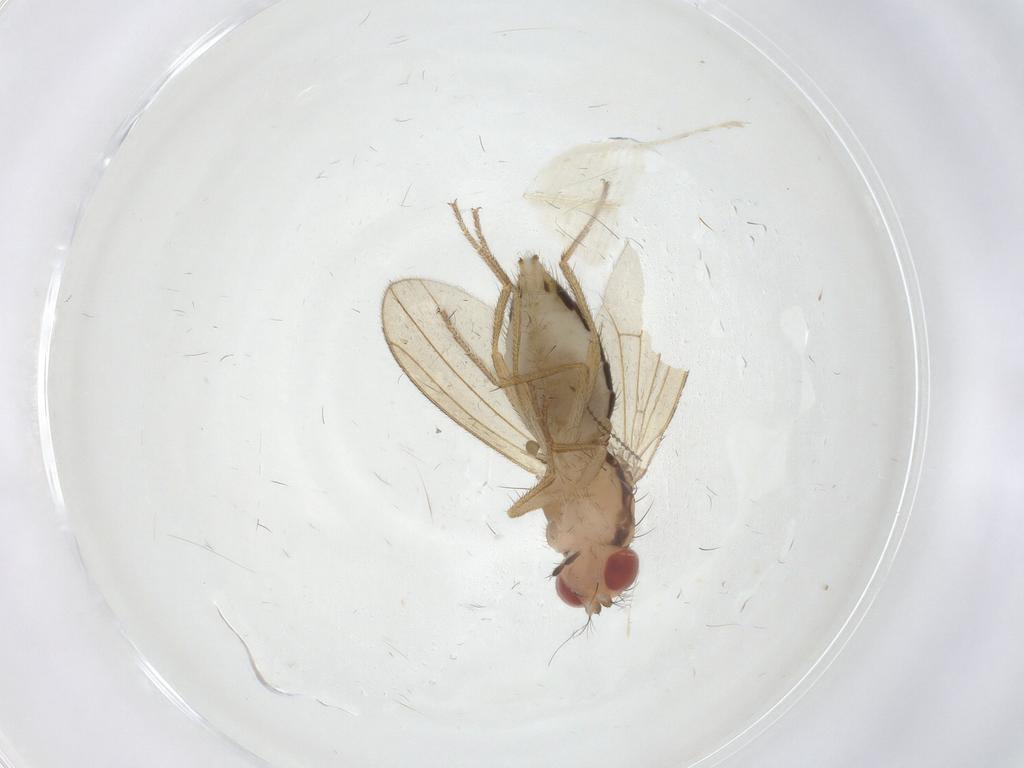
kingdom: Animalia
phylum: Arthropoda
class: Insecta
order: Diptera
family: Drosophilidae
